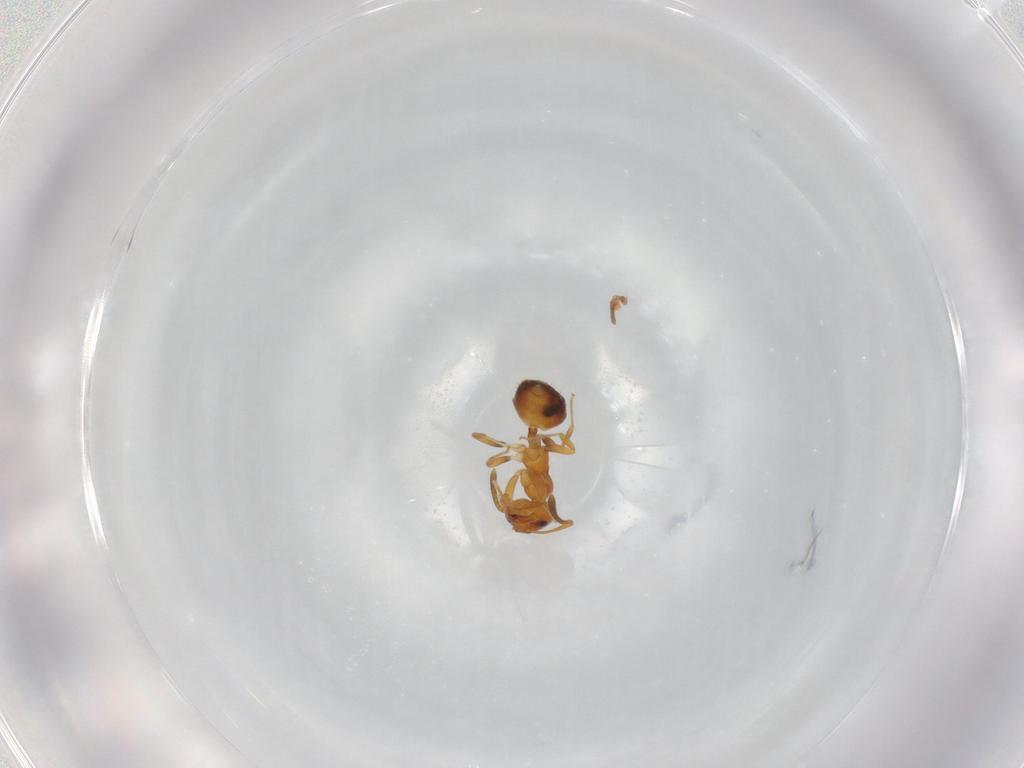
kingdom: Animalia
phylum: Arthropoda
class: Insecta
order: Hymenoptera
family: Formicidae
